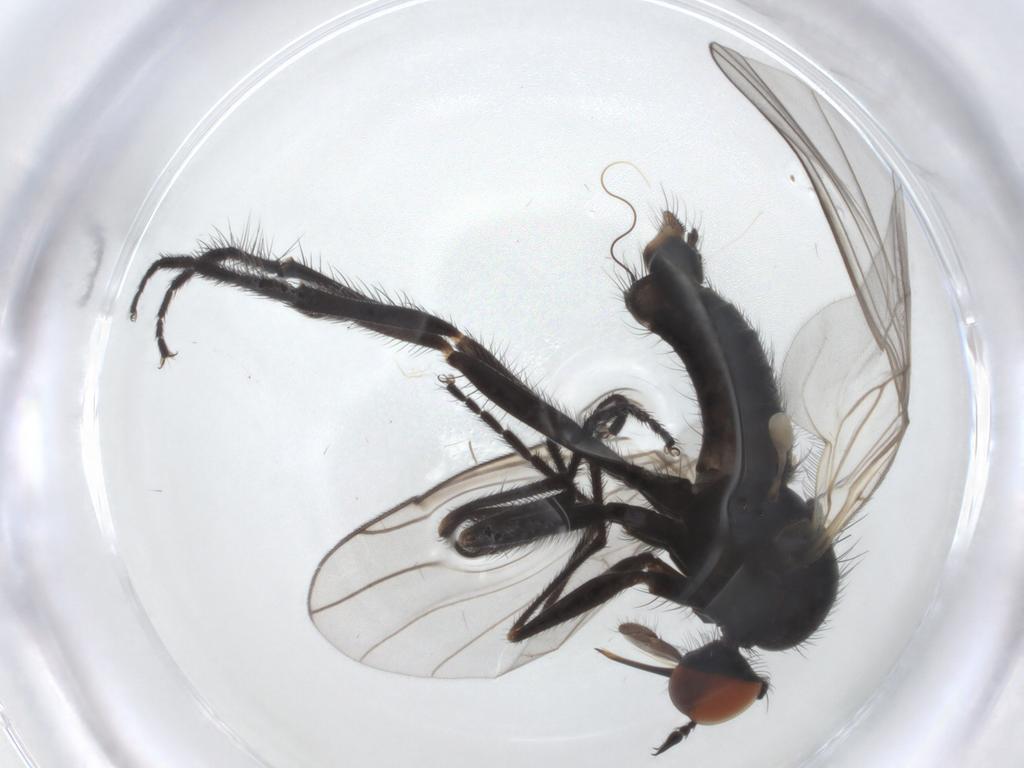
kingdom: Animalia
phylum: Arthropoda
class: Insecta
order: Diptera
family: Empididae
